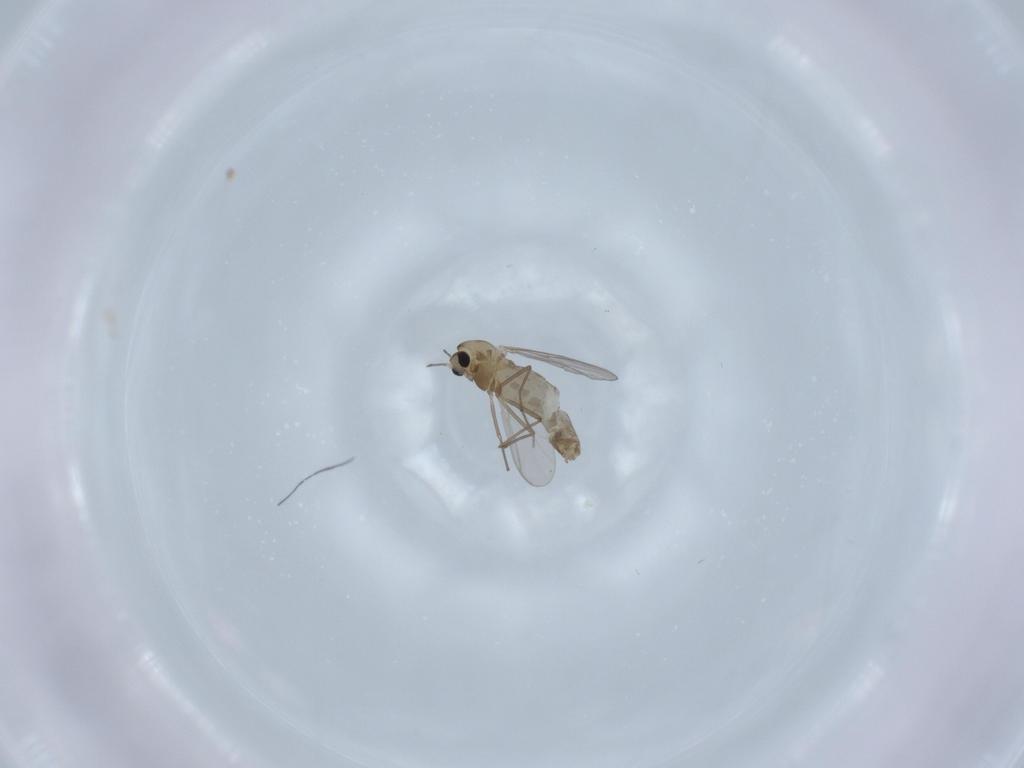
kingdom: Animalia
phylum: Arthropoda
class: Insecta
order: Diptera
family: Chironomidae
